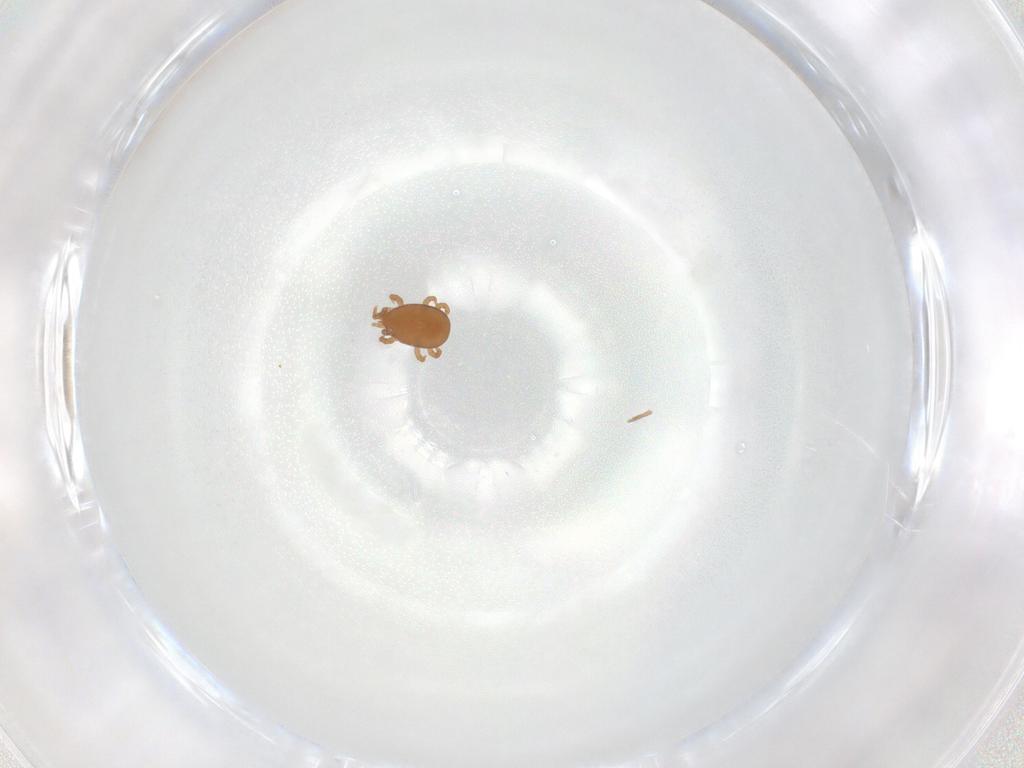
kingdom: Animalia
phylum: Arthropoda
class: Arachnida
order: Mesostigmata
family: Eviphididae
